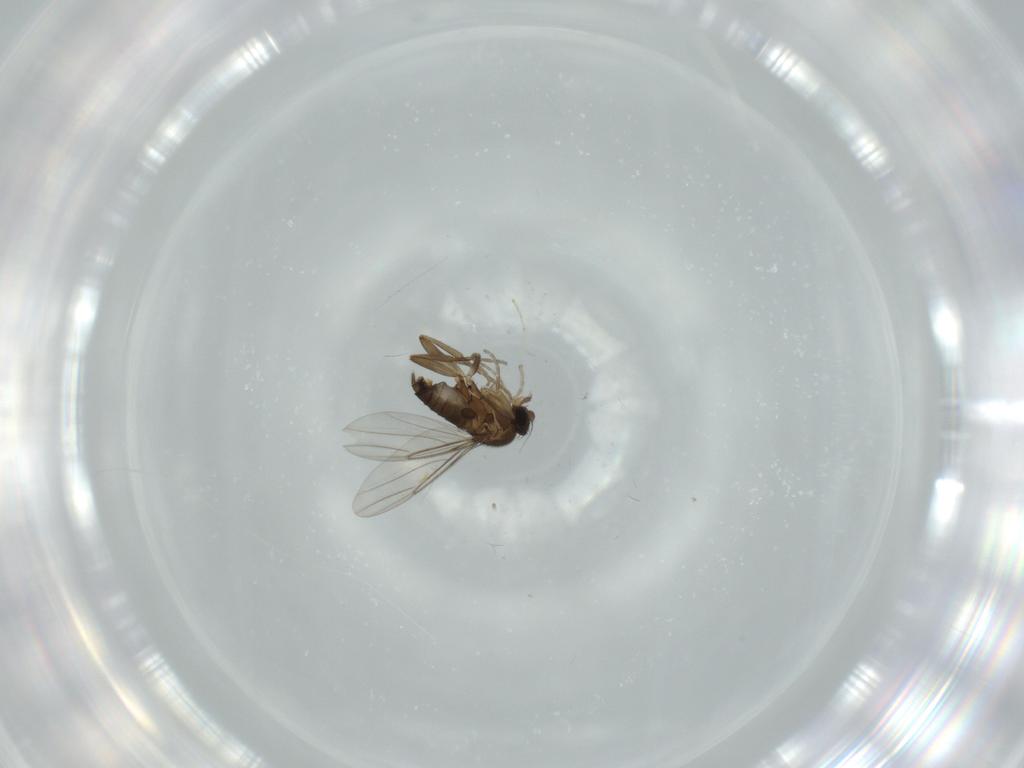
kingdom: Animalia
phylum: Arthropoda
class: Insecta
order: Diptera
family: Phoridae
